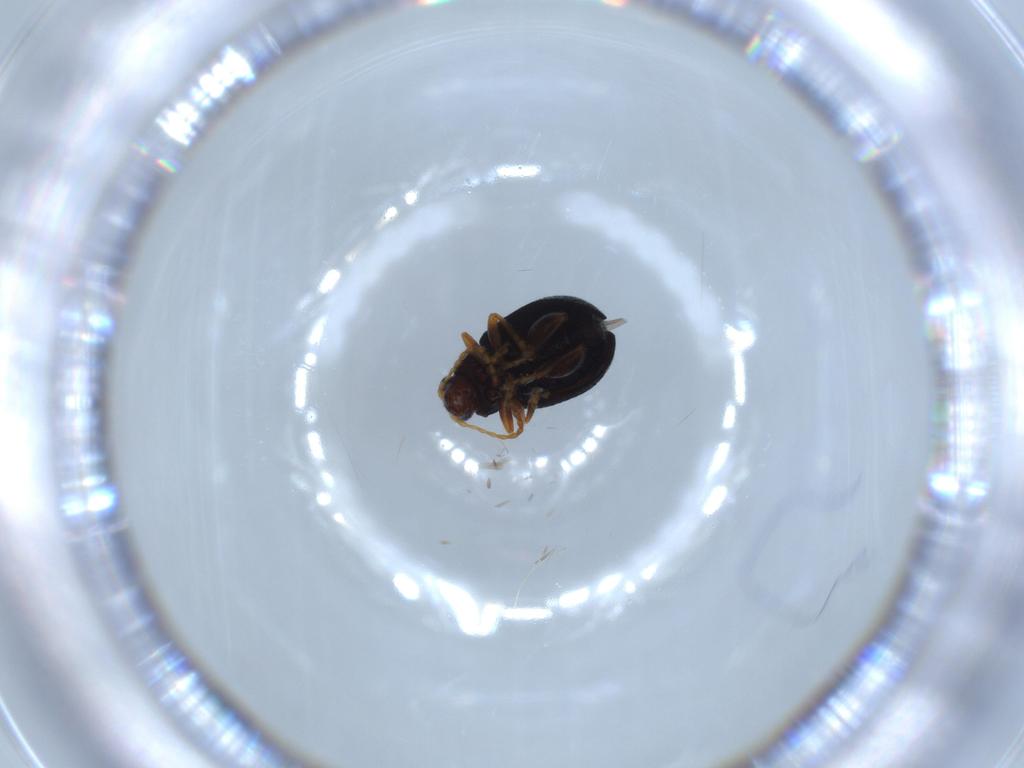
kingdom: Animalia
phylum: Arthropoda
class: Insecta
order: Coleoptera
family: Chrysomelidae
